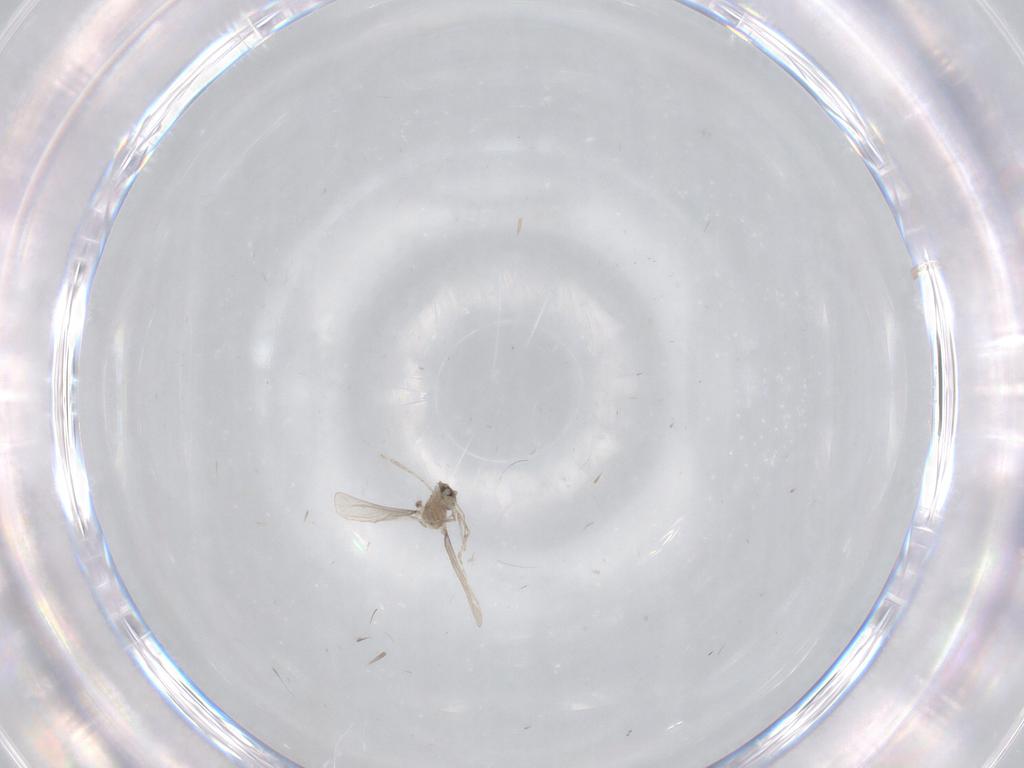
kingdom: Animalia
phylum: Arthropoda
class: Insecta
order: Diptera
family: Cecidomyiidae
